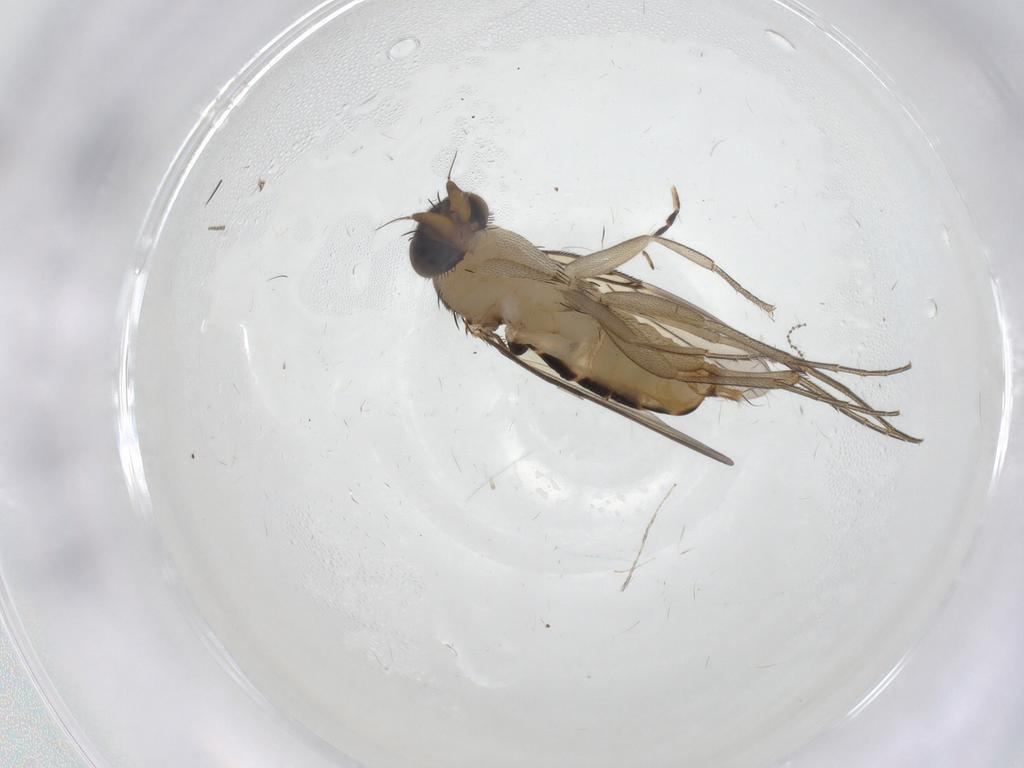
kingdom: Animalia
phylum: Arthropoda
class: Insecta
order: Diptera
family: Phoridae
